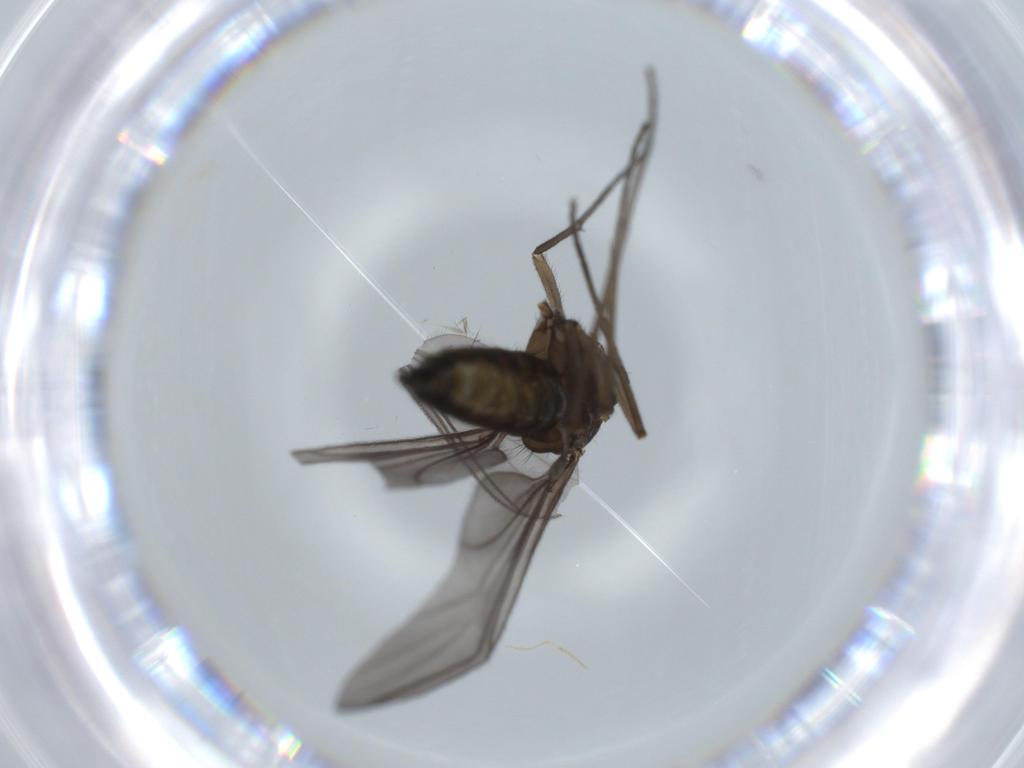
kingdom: Animalia
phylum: Arthropoda
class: Insecta
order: Diptera
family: Sciaridae
